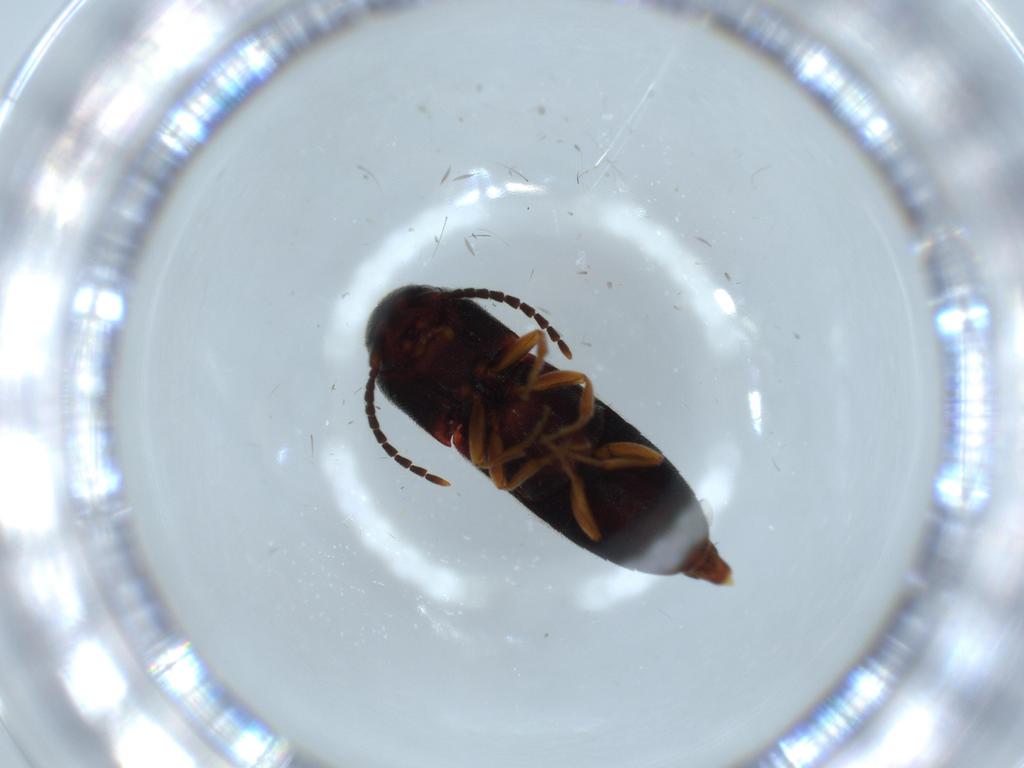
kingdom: Animalia
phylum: Arthropoda
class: Insecta
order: Coleoptera
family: Eucnemidae
